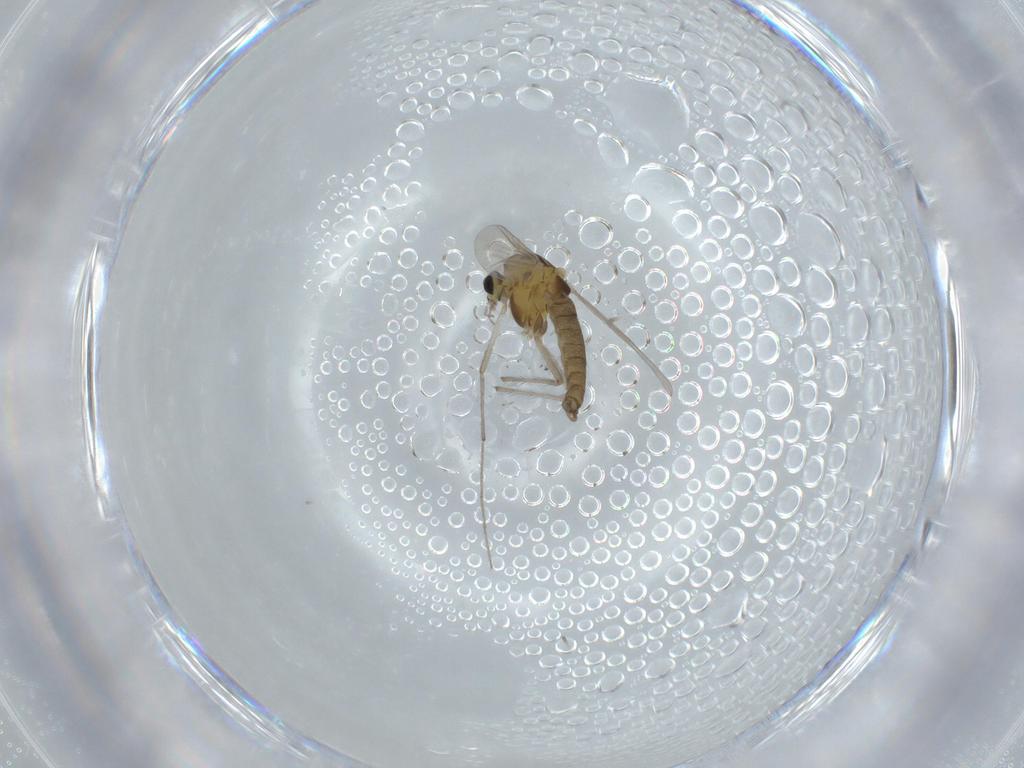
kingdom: Animalia
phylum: Arthropoda
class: Insecta
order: Diptera
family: Chironomidae
